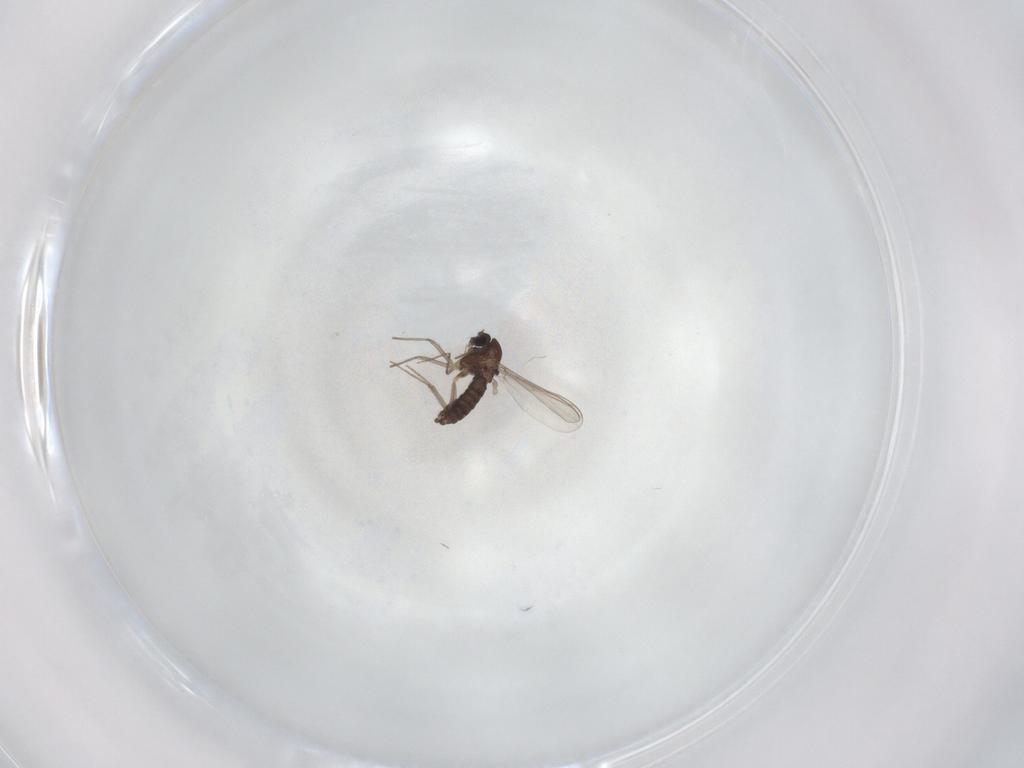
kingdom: Animalia
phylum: Arthropoda
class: Insecta
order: Diptera
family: Chironomidae
